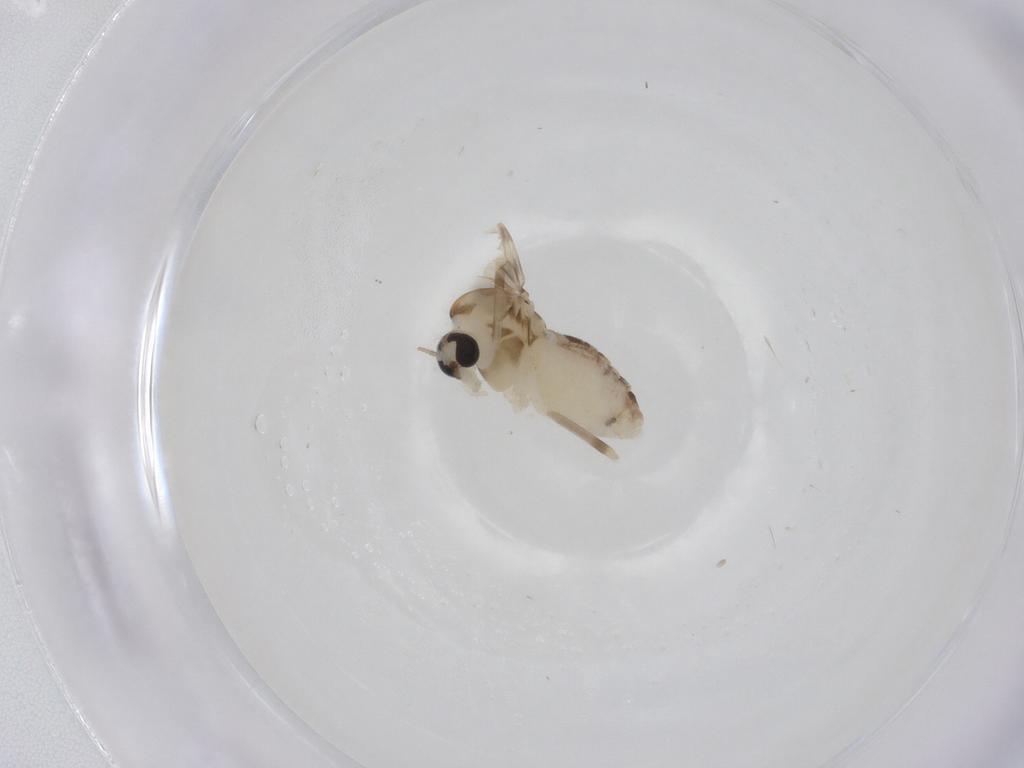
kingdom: Animalia
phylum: Arthropoda
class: Insecta
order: Diptera
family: Chironomidae
